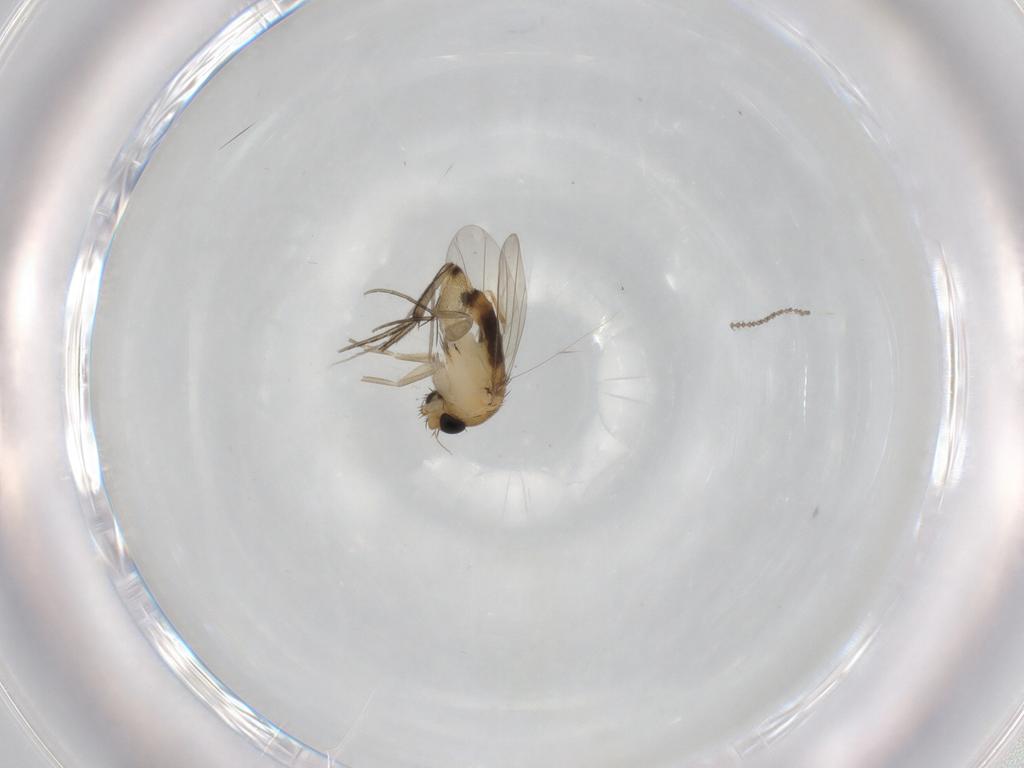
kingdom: Animalia
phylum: Arthropoda
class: Insecta
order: Diptera
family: Phoridae
